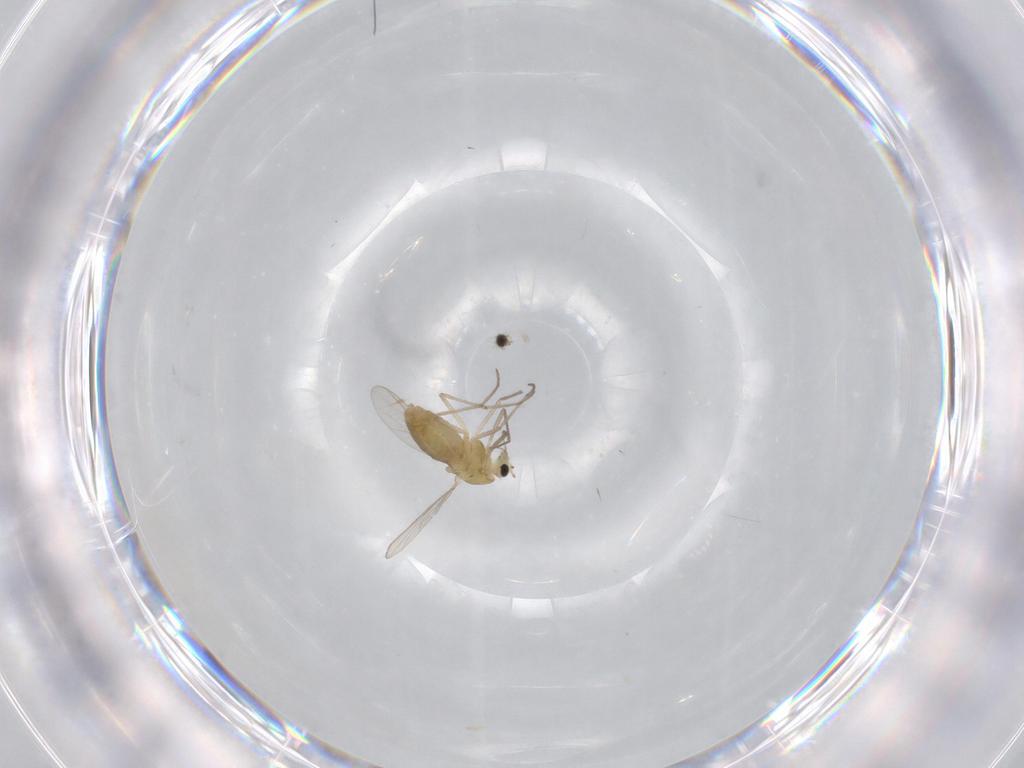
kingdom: Animalia
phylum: Arthropoda
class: Insecta
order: Diptera
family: Chironomidae
